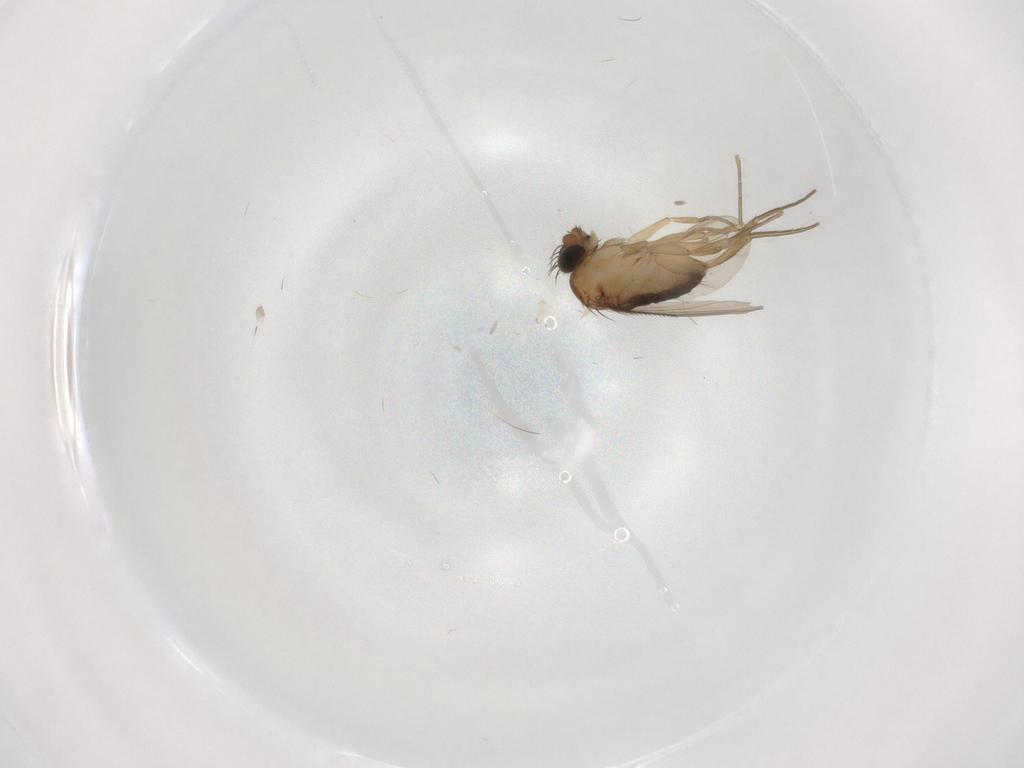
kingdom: Animalia
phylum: Arthropoda
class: Insecta
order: Diptera
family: Phoridae
